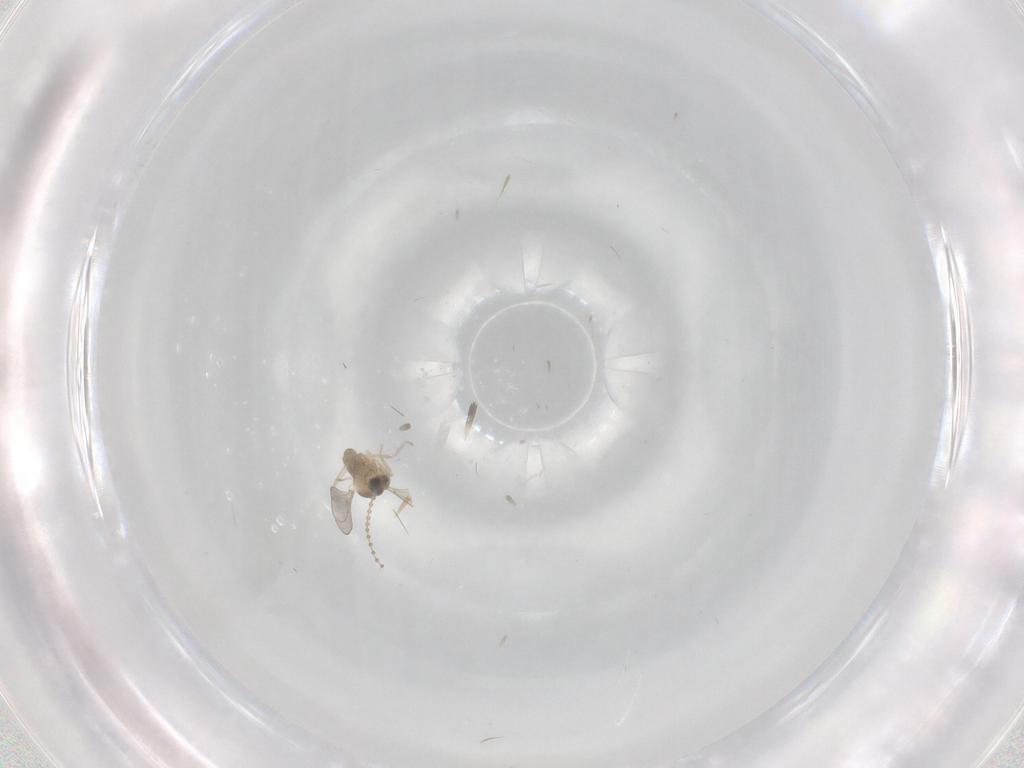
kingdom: Animalia
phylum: Arthropoda
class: Insecta
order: Diptera
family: Cecidomyiidae
